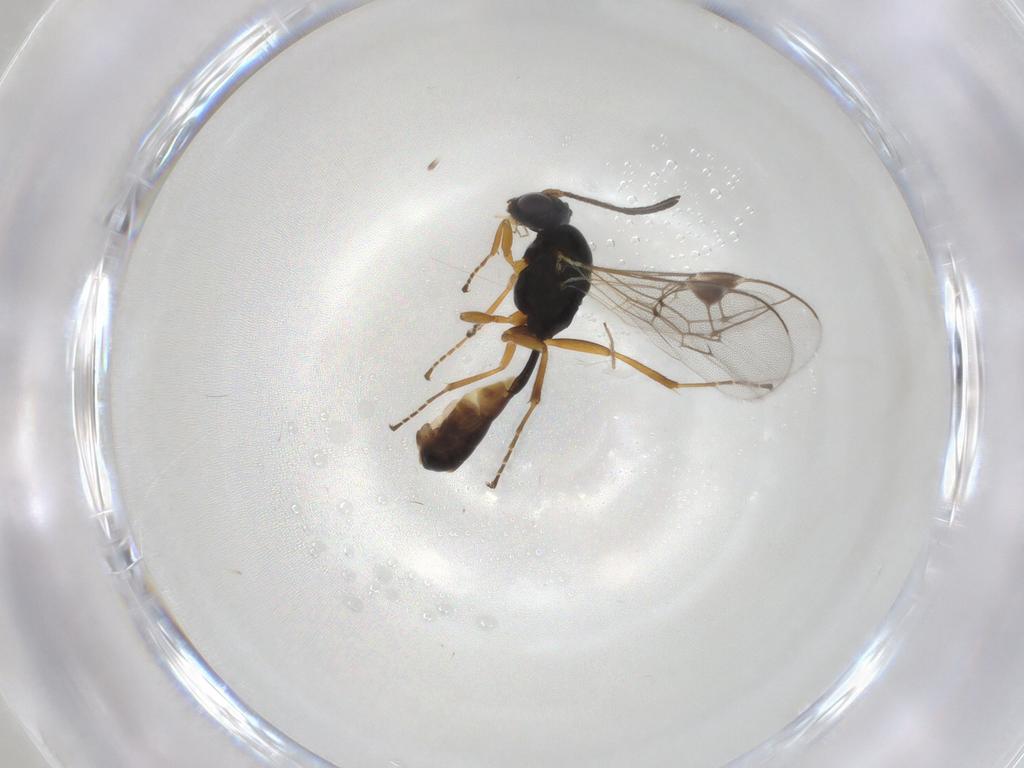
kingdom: Animalia
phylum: Arthropoda
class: Insecta
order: Hymenoptera
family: Ichneumonidae
